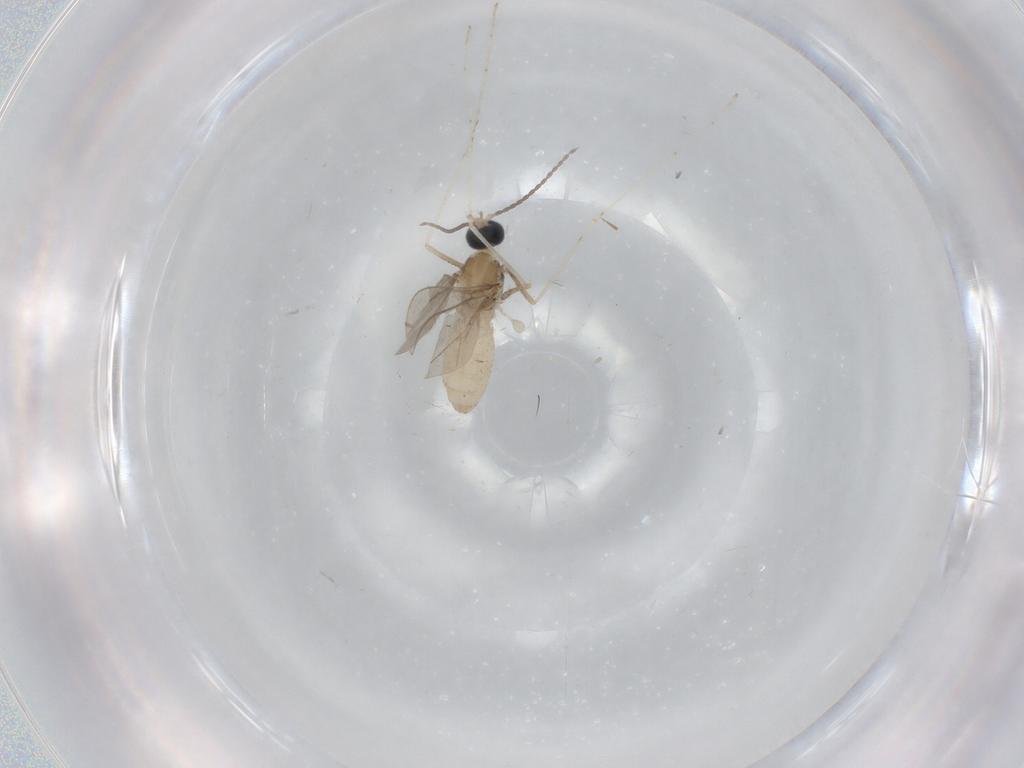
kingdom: Animalia
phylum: Arthropoda
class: Insecta
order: Diptera
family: Cecidomyiidae
